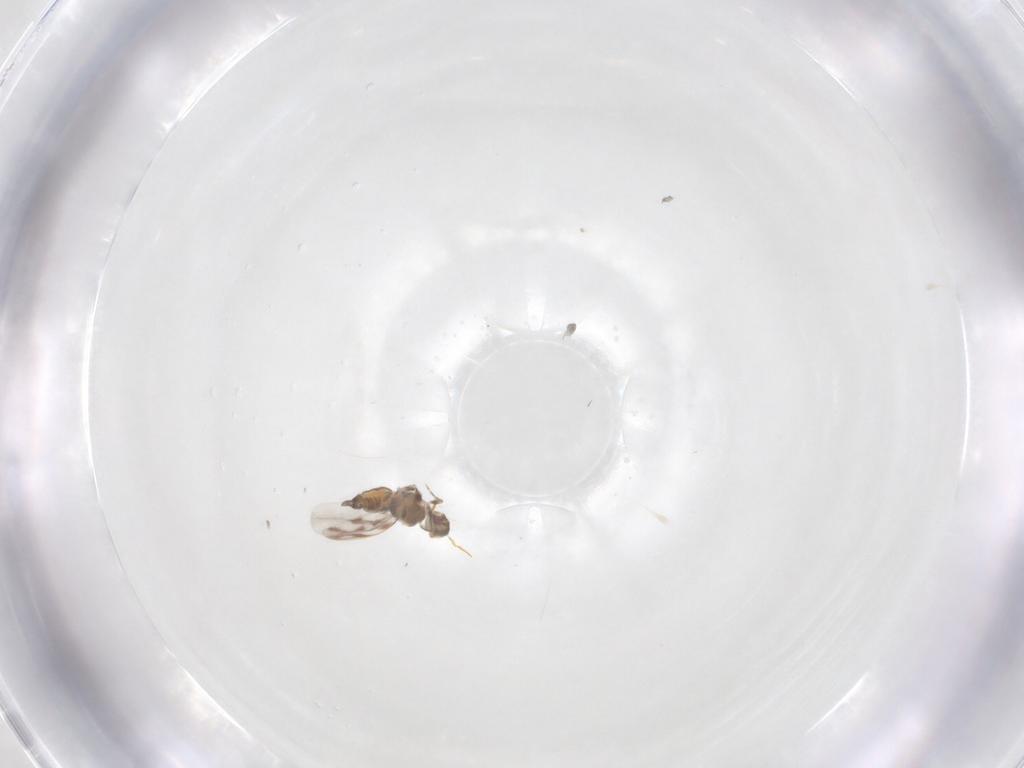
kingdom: Animalia
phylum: Arthropoda
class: Insecta
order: Hemiptera
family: Aleyrodidae
